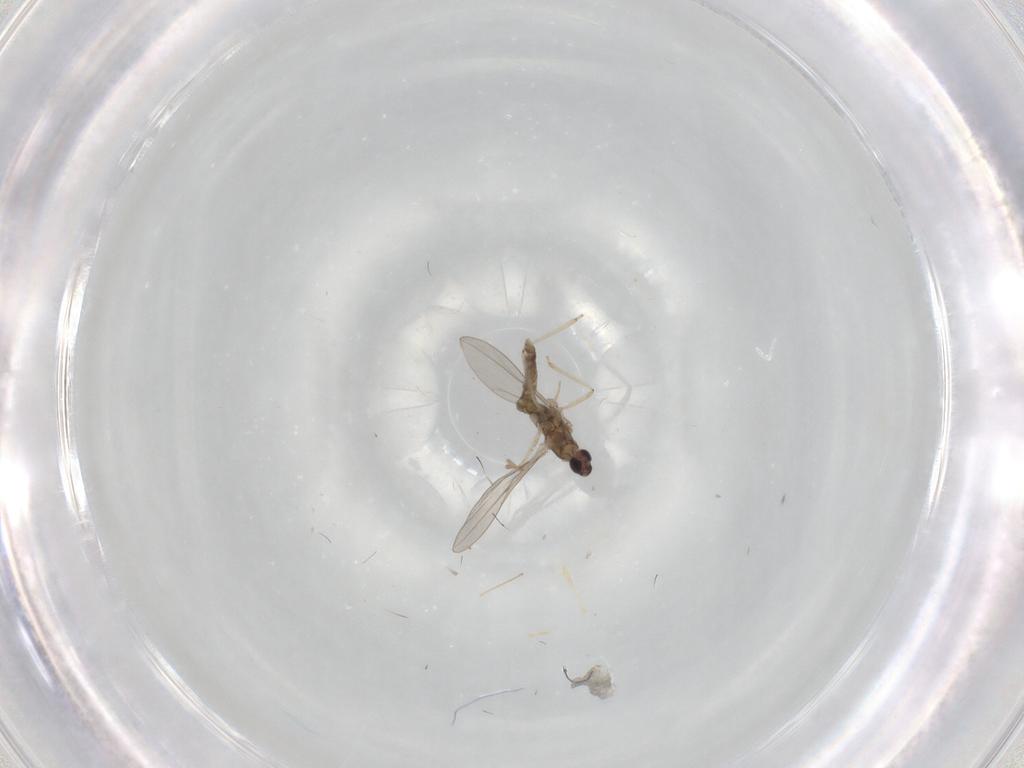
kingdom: Animalia
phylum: Arthropoda
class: Insecta
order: Diptera
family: Cecidomyiidae
